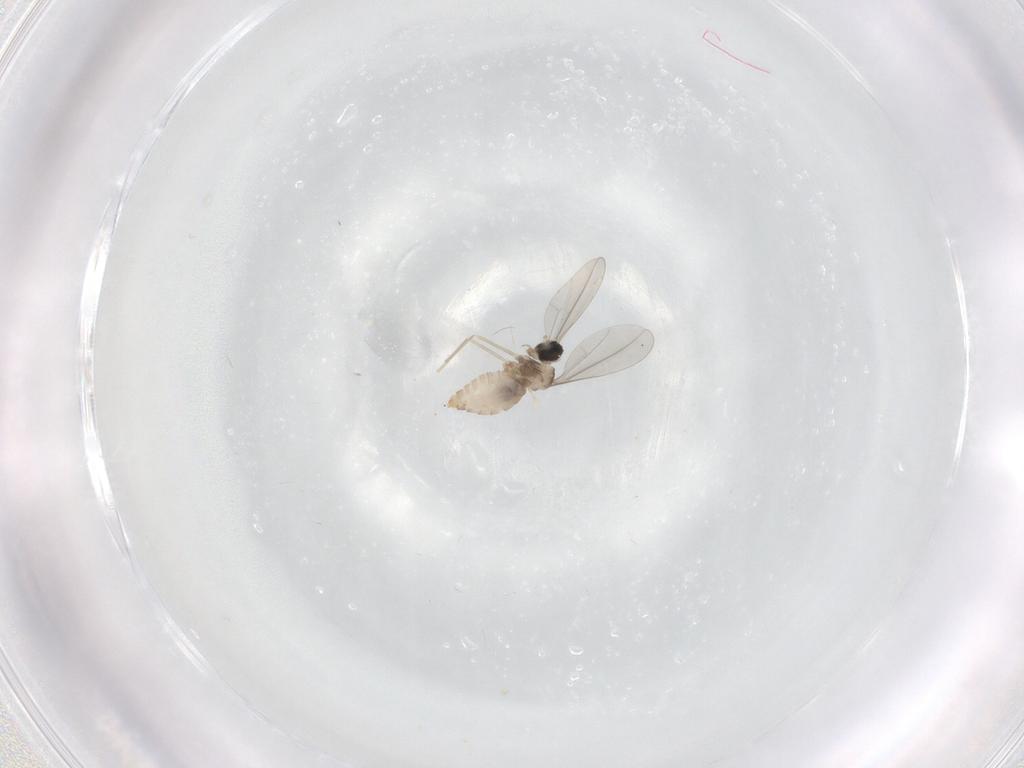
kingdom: Animalia
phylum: Arthropoda
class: Insecta
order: Diptera
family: Cecidomyiidae
